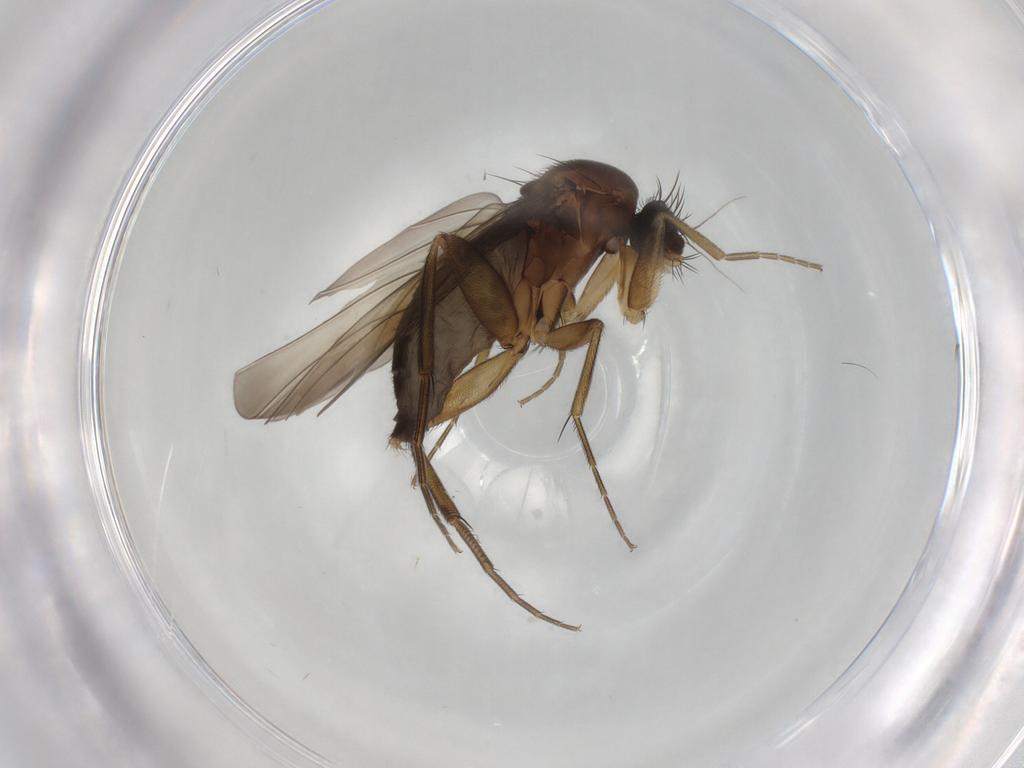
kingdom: Animalia
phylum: Arthropoda
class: Insecta
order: Diptera
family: Phoridae
